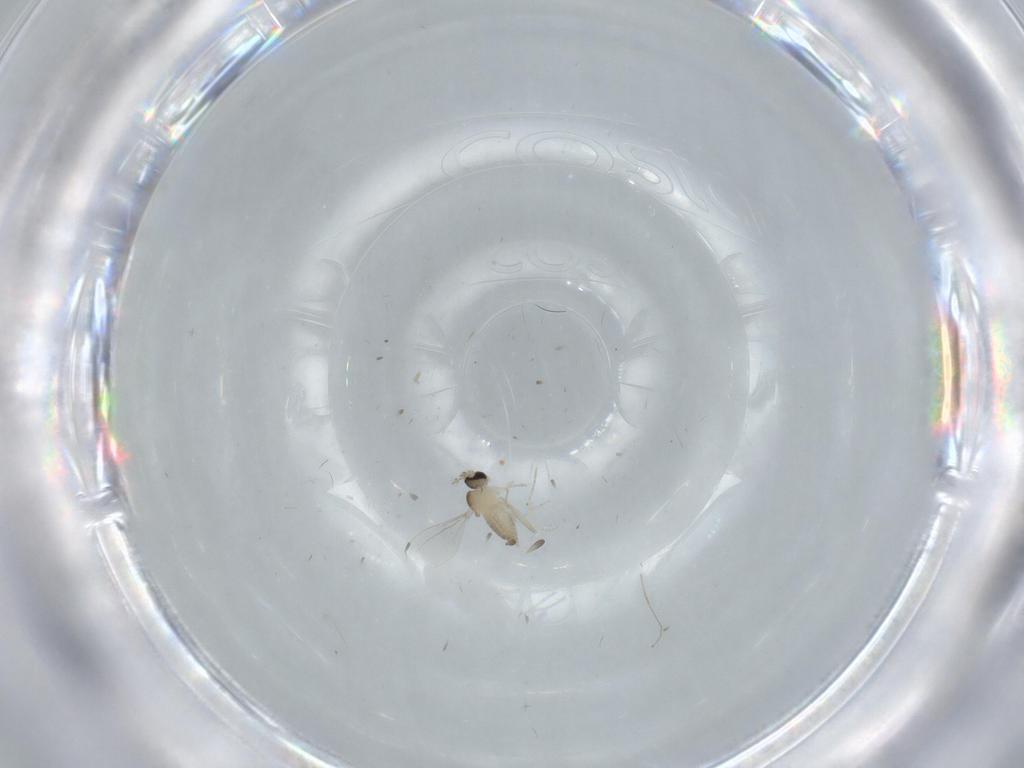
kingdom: Animalia
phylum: Arthropoda
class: Insecta
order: Diptera
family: Cecidomyiidae
